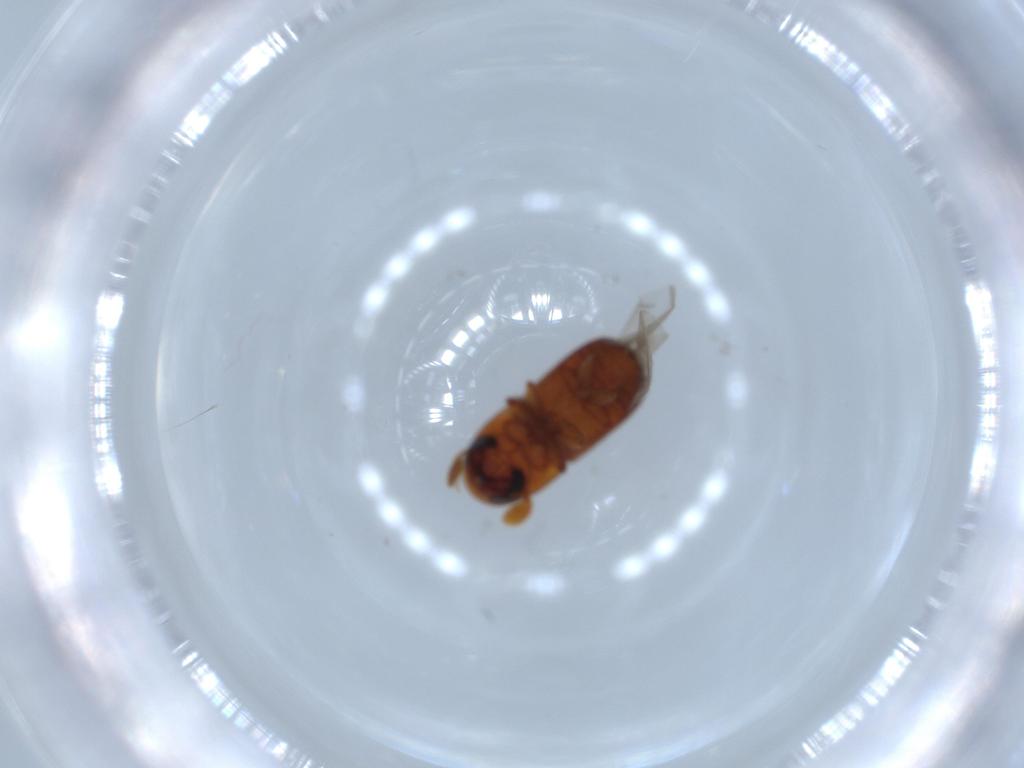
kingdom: Animalia
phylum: Arthropoda
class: Insecta
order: Coleoptera
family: Curculionidae
